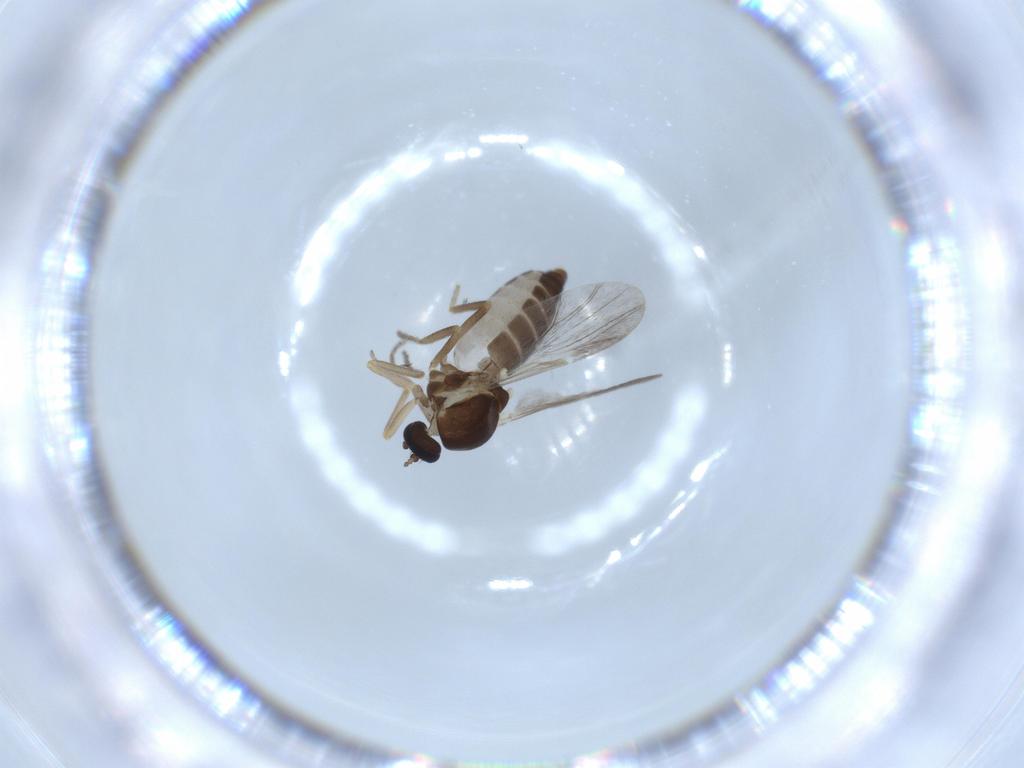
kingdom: Animalia
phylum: Arthropoda
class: Insecta
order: Diptera
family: Ceratopogonidae
